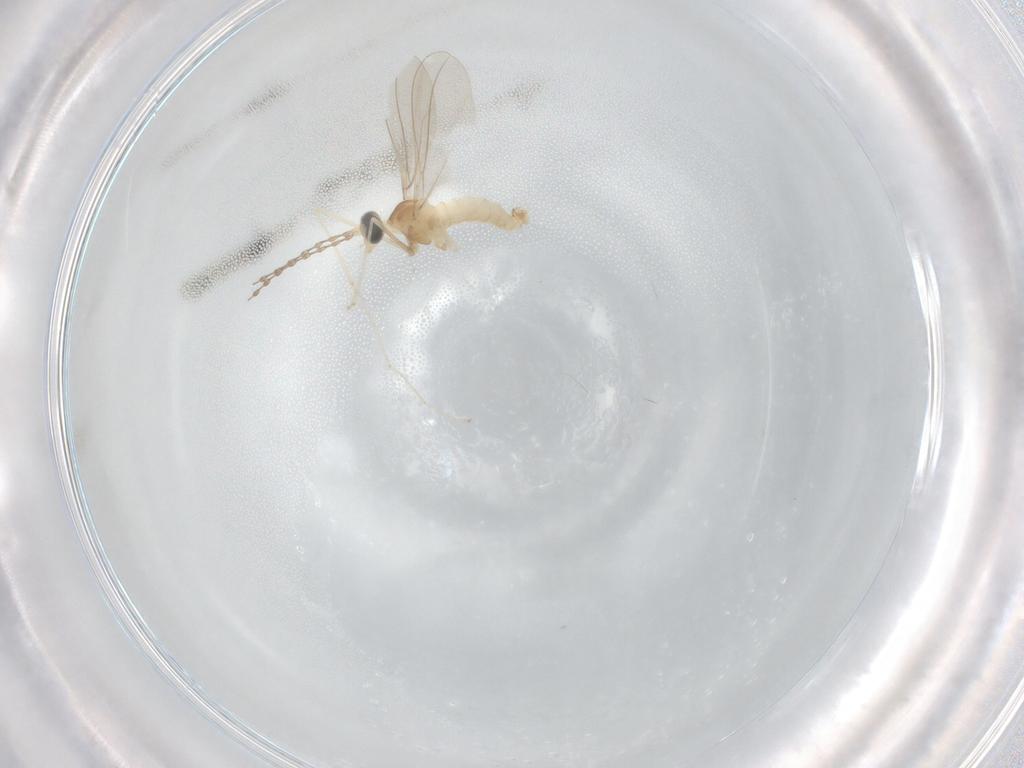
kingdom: Animalia
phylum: Arthropoda
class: Insecta
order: Diptera
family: Cecidomyiidae
